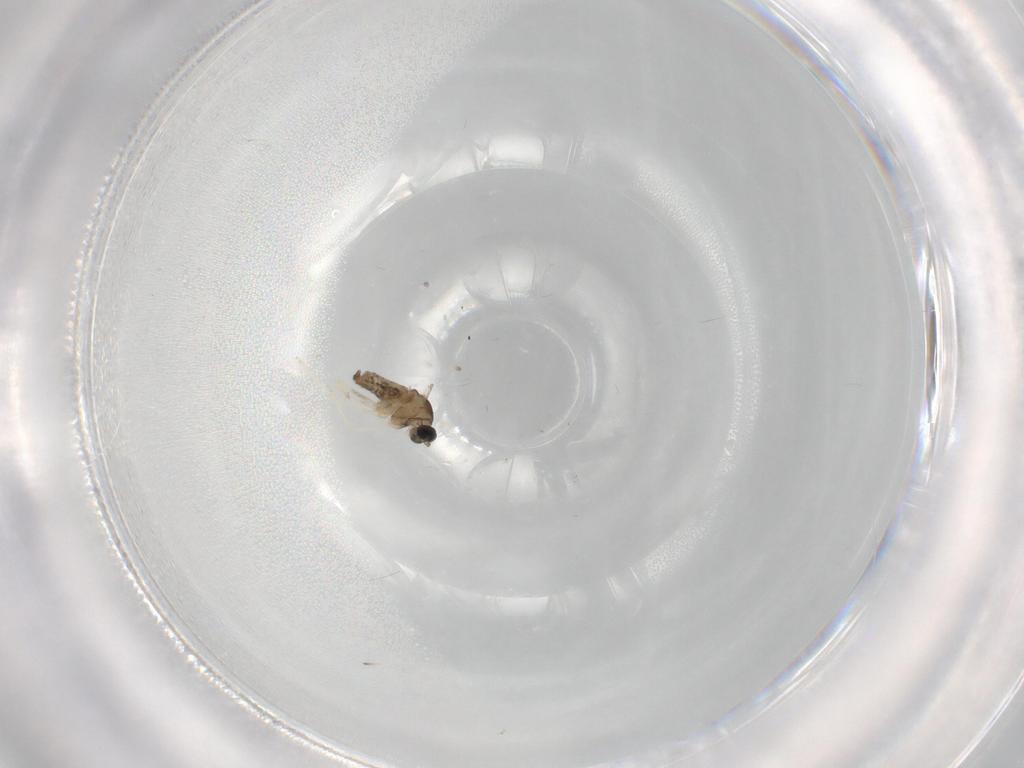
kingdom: Animalia
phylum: Arthropoda
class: Insecta
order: Diptera
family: Cecidomyiidae
